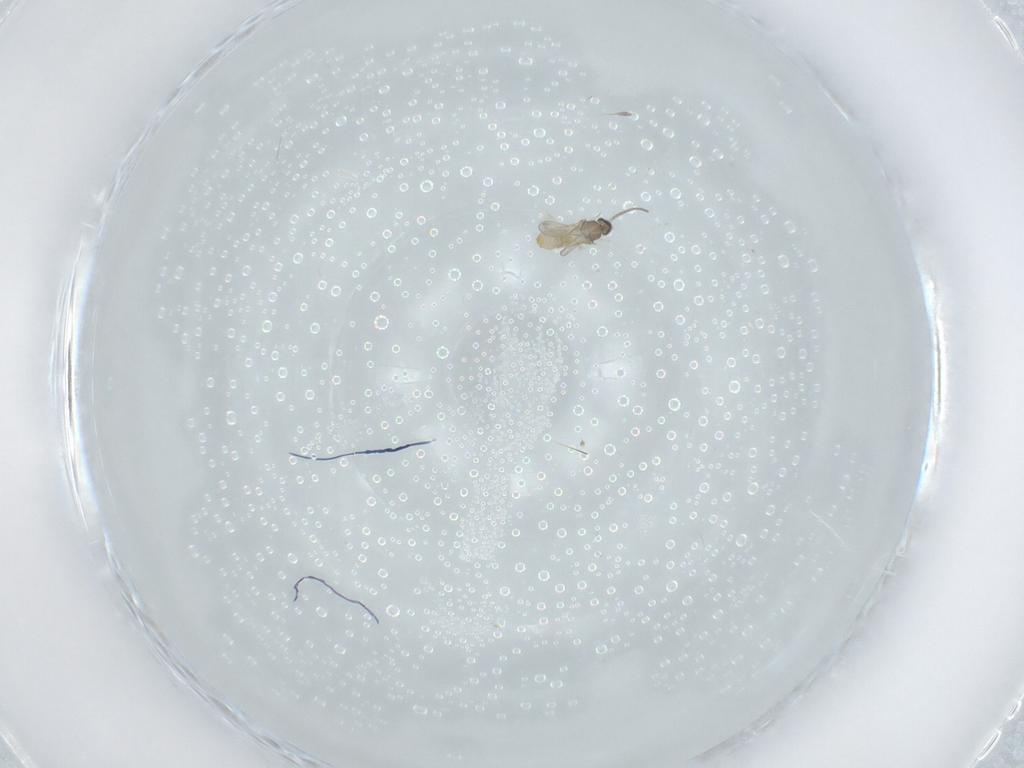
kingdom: Animalia
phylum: Arthropoda
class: Insecta
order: Diptera
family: Cecidomyiidae
